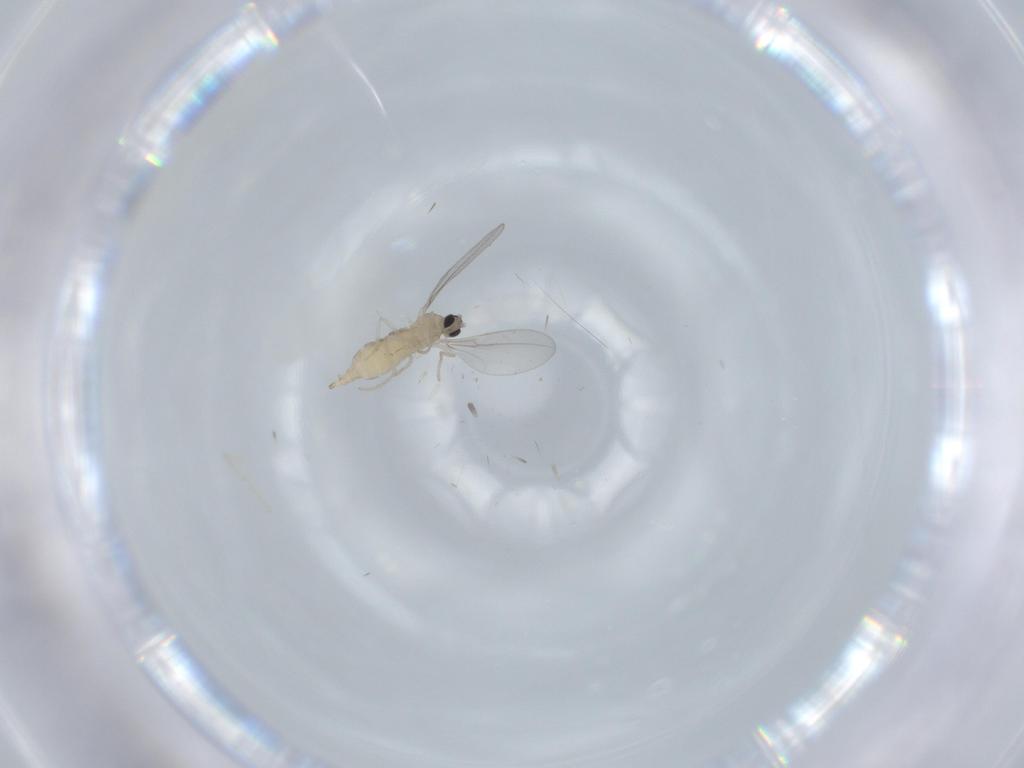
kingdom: Animalia
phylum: Arthropoda
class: Insecta
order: Diptera
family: Cecidomyiidae
